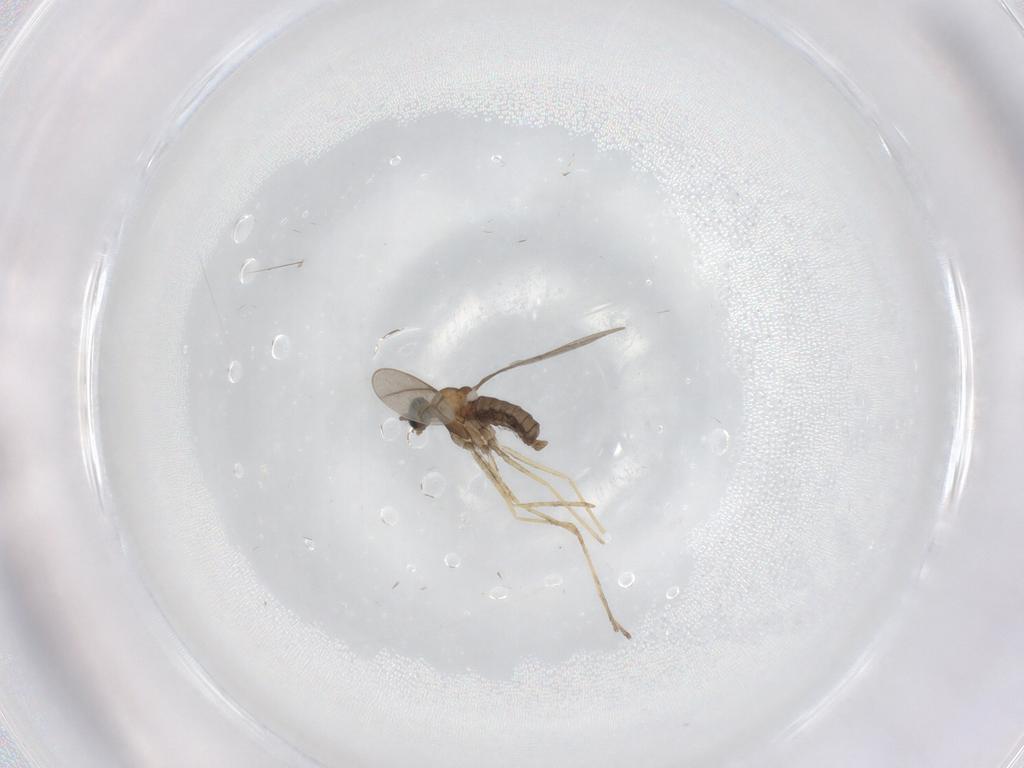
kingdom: Animalia
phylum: Arthropoda
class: Insecta
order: Diptera
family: Cecidomyiidae
